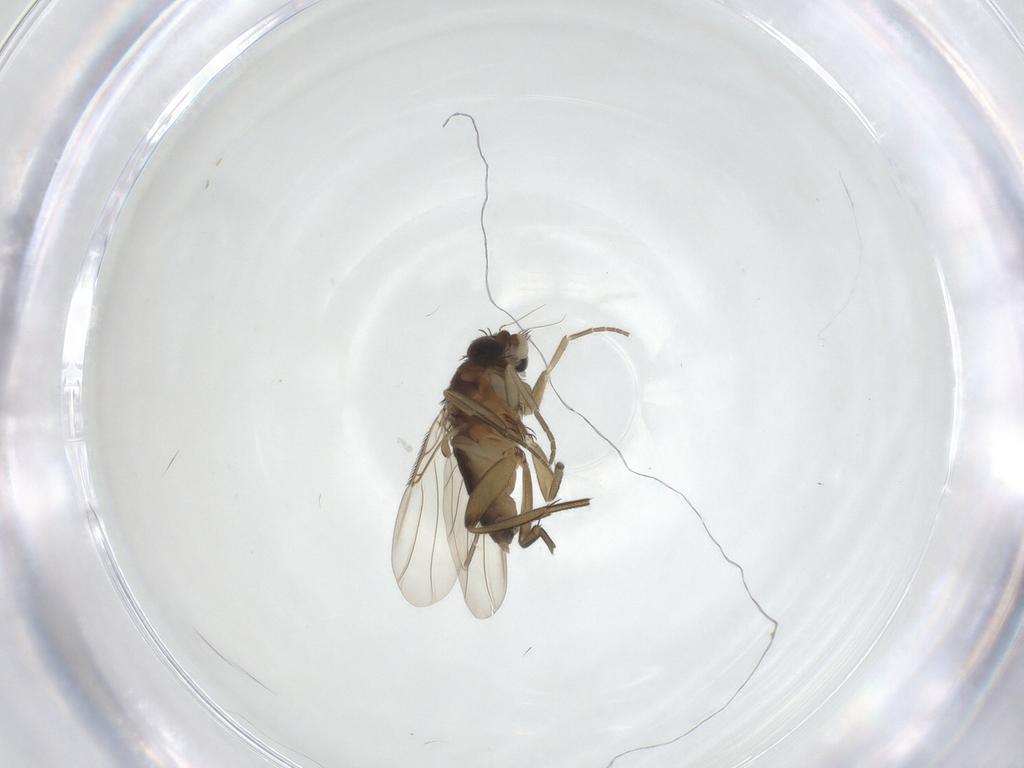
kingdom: Animalia
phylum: Arthropoda
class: Insecta
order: Diptera
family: Phoridae
